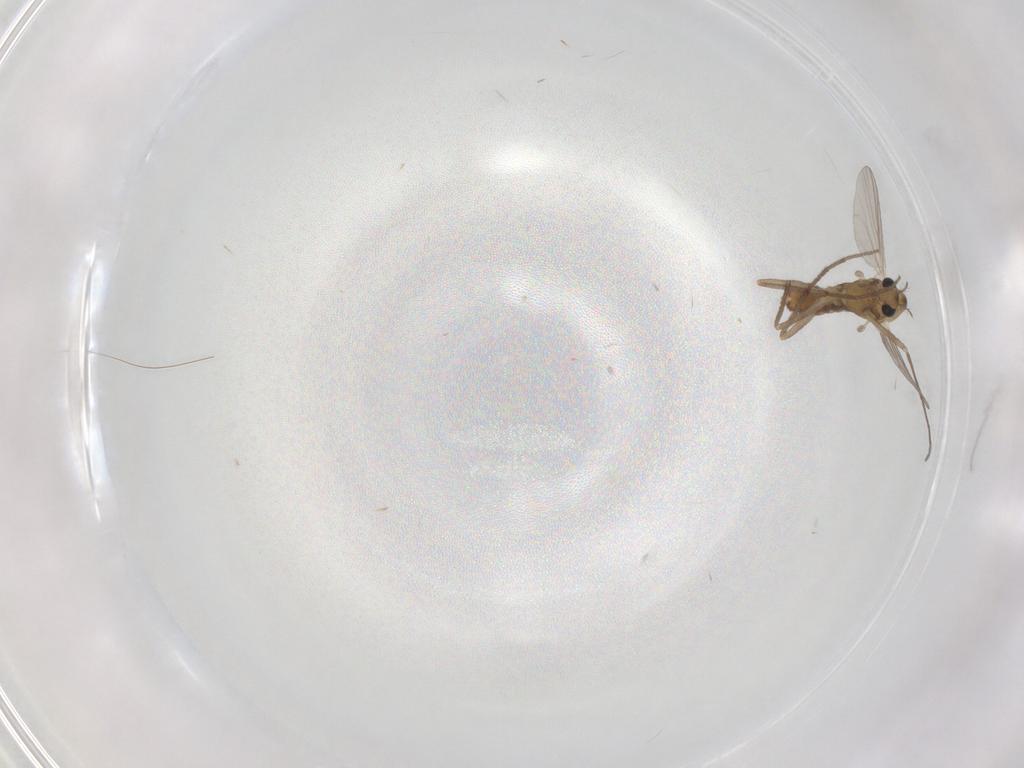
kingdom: Animalia
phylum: Arthropoda
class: Insecta
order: Diptera
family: Chironomidae
